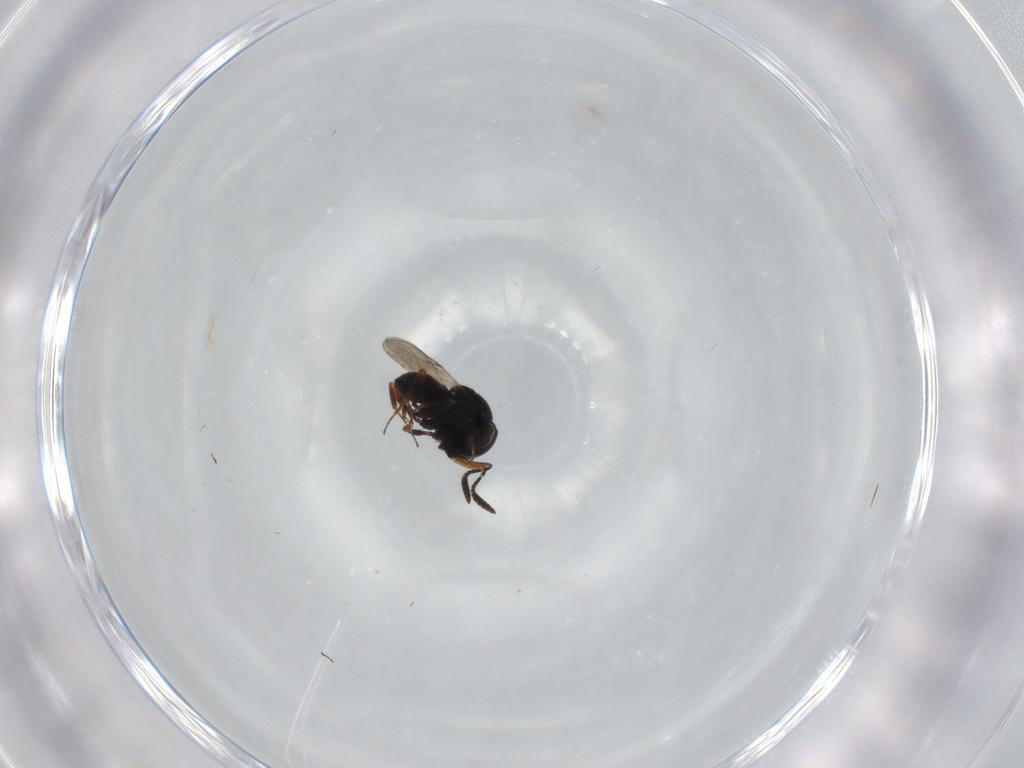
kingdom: Animalia
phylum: Arthropoda
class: Insecta
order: Hymenoptera
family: Scelionidae
